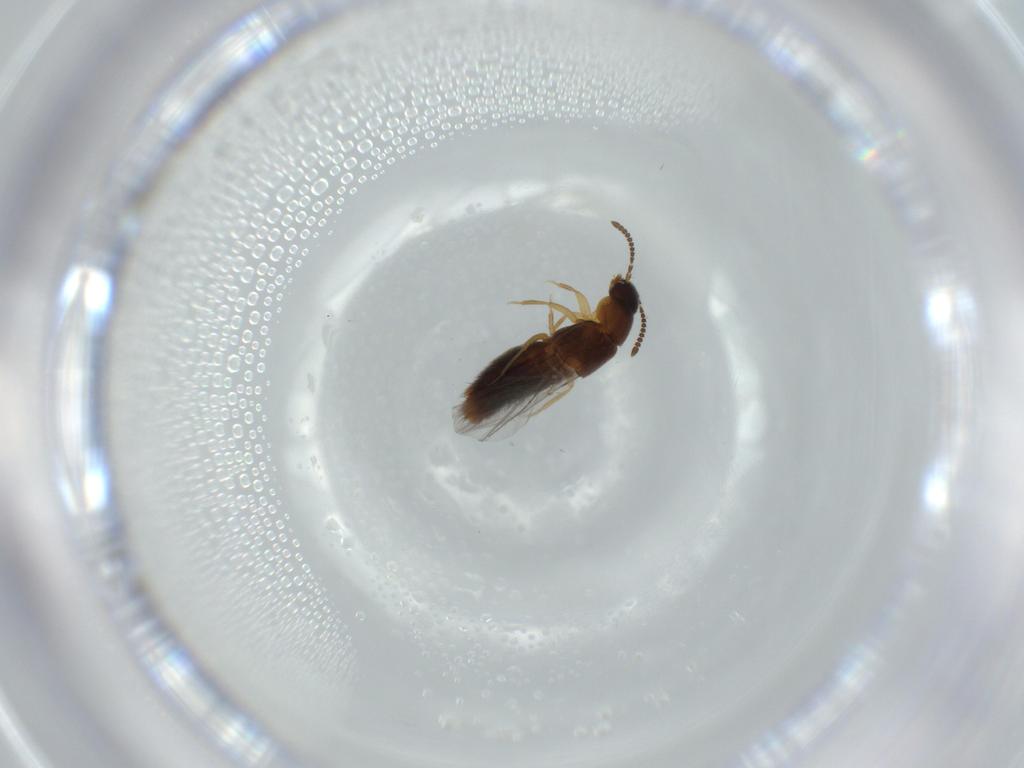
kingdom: Animalia
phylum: Arthropoda
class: Insecta
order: Coleoptera
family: Staphylinidae
